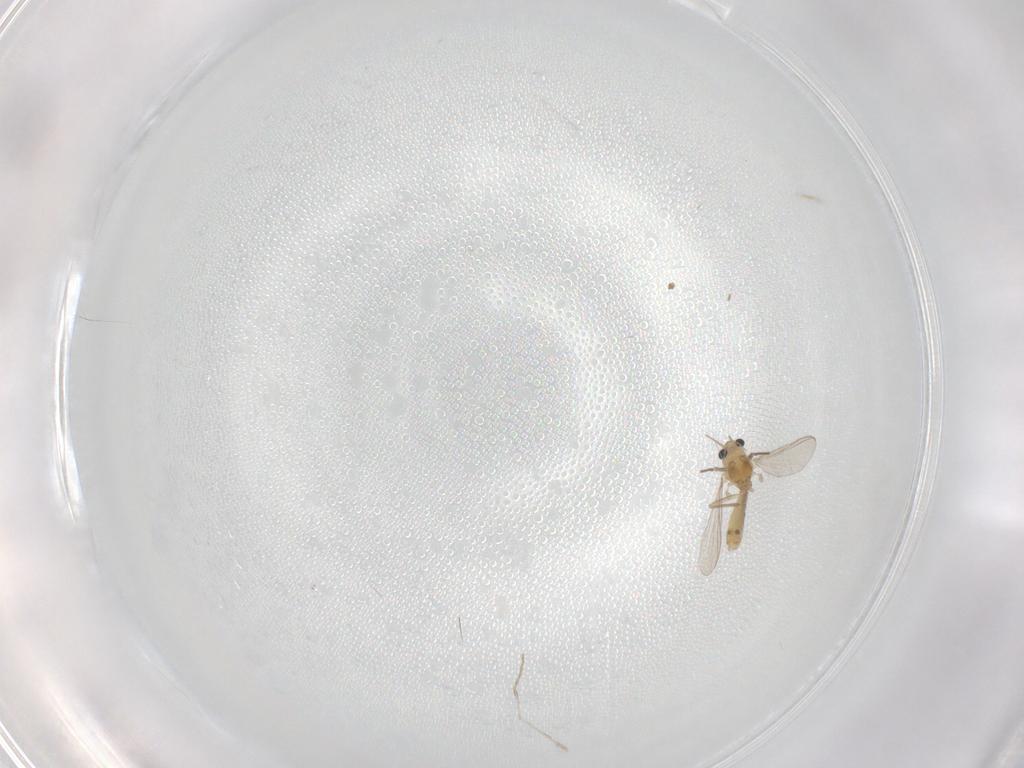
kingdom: Animalia
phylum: Arthropoda
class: Insecta
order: Diptera
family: Chironomidae
